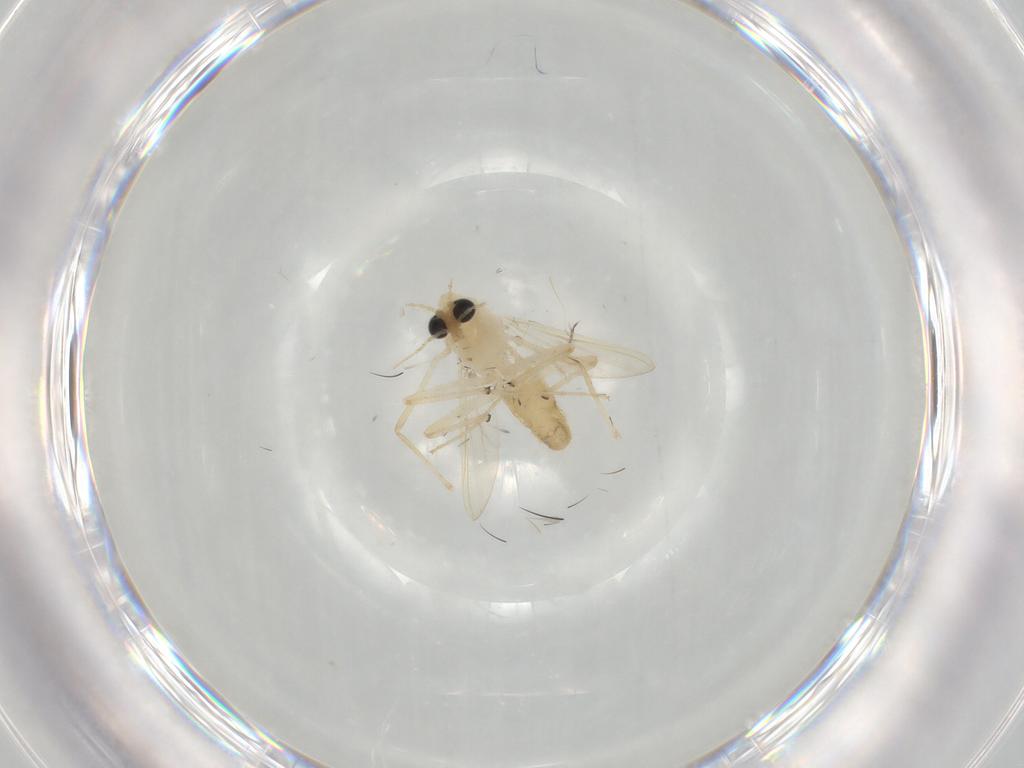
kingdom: Animalia
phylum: Arthropoda
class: Insecta
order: Diptera
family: Chironomidae
